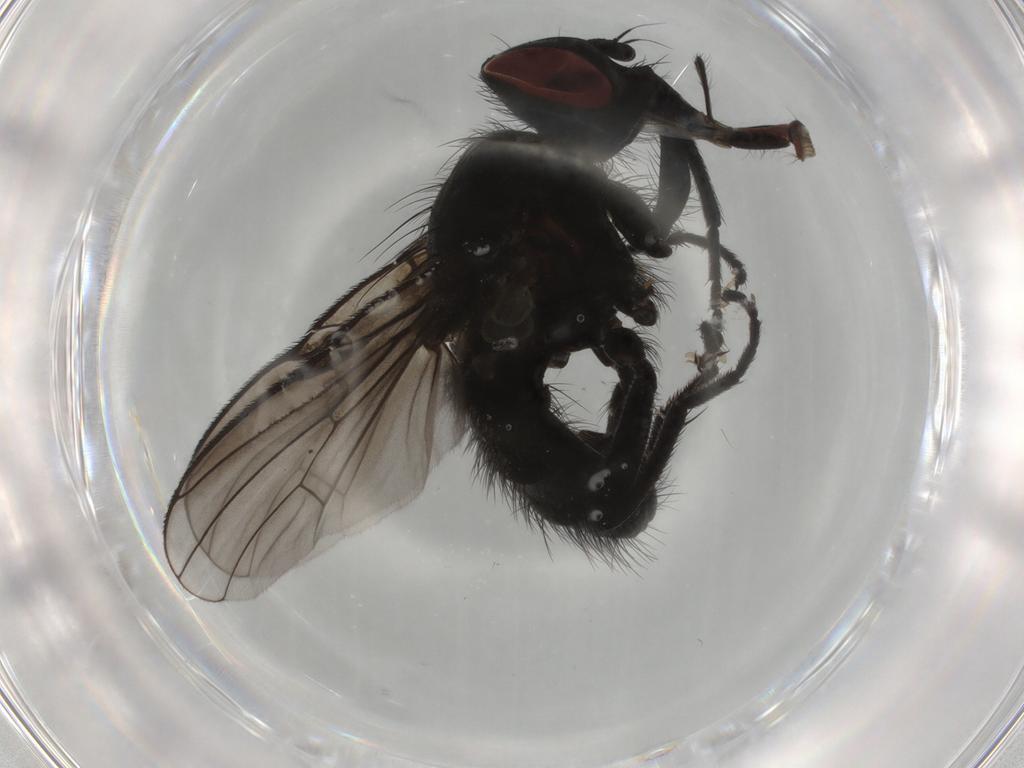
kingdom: Animalia
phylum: Arthropoda
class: Insecta
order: Diptera
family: Muscidae
